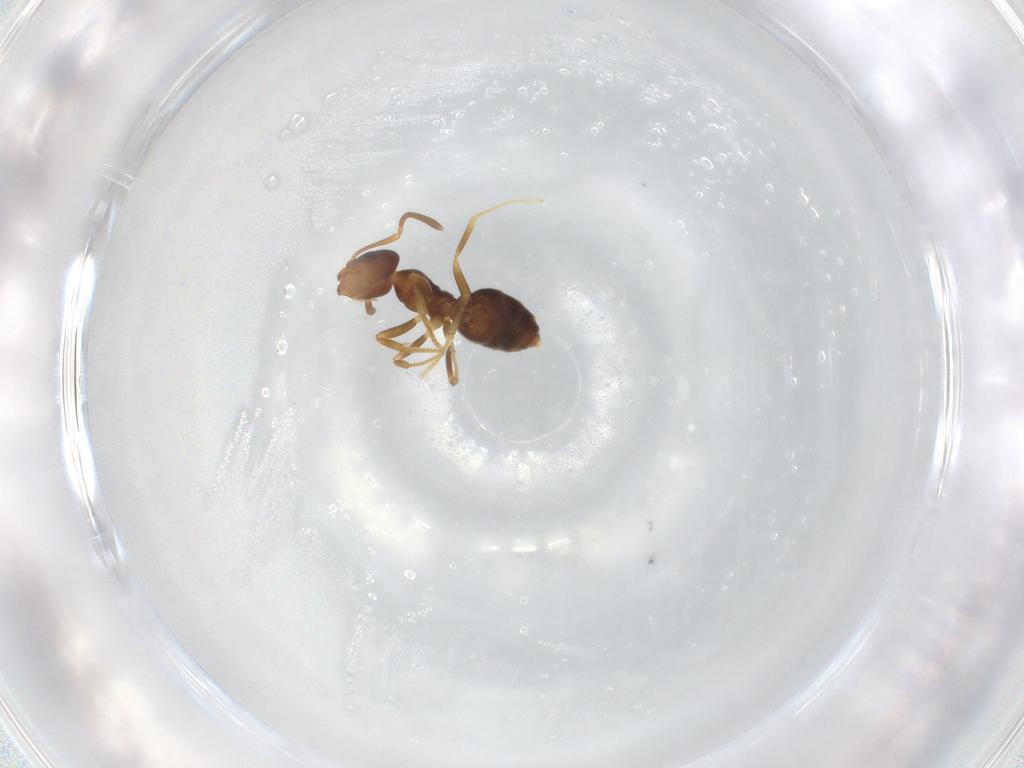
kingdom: Animalia
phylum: Arthropoda
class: Insecta
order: Hymenoptera
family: Formicidae
